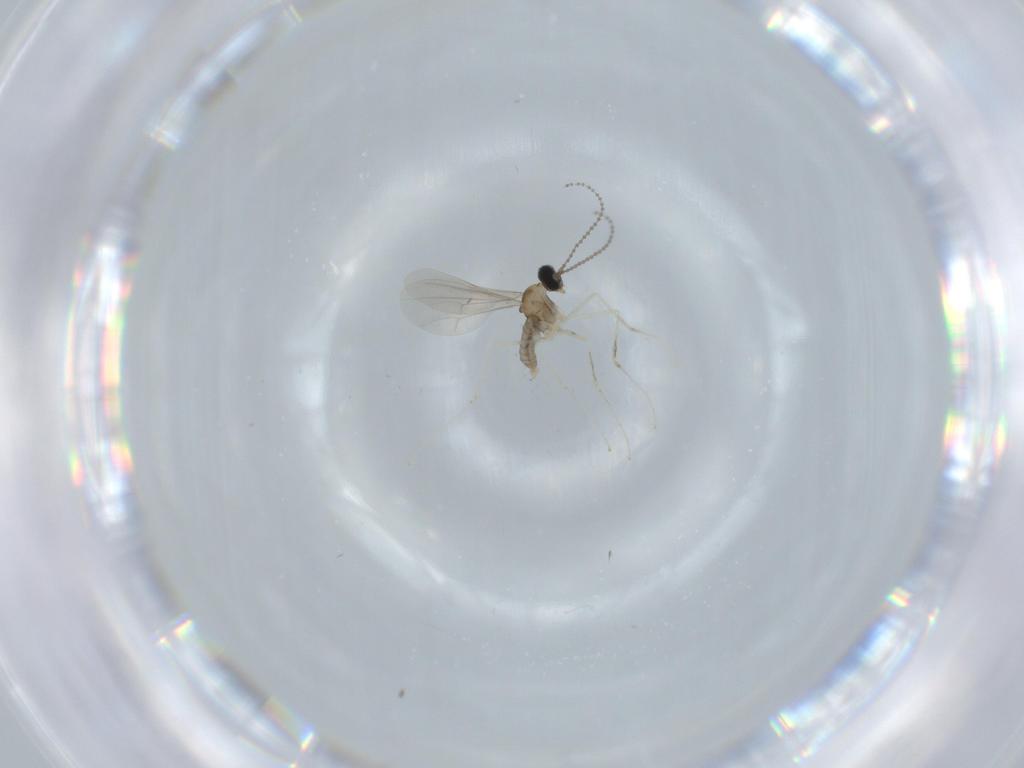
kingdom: Animalia
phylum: Arthropoda
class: Insecta
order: Diptera
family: Cecidomyiidae
